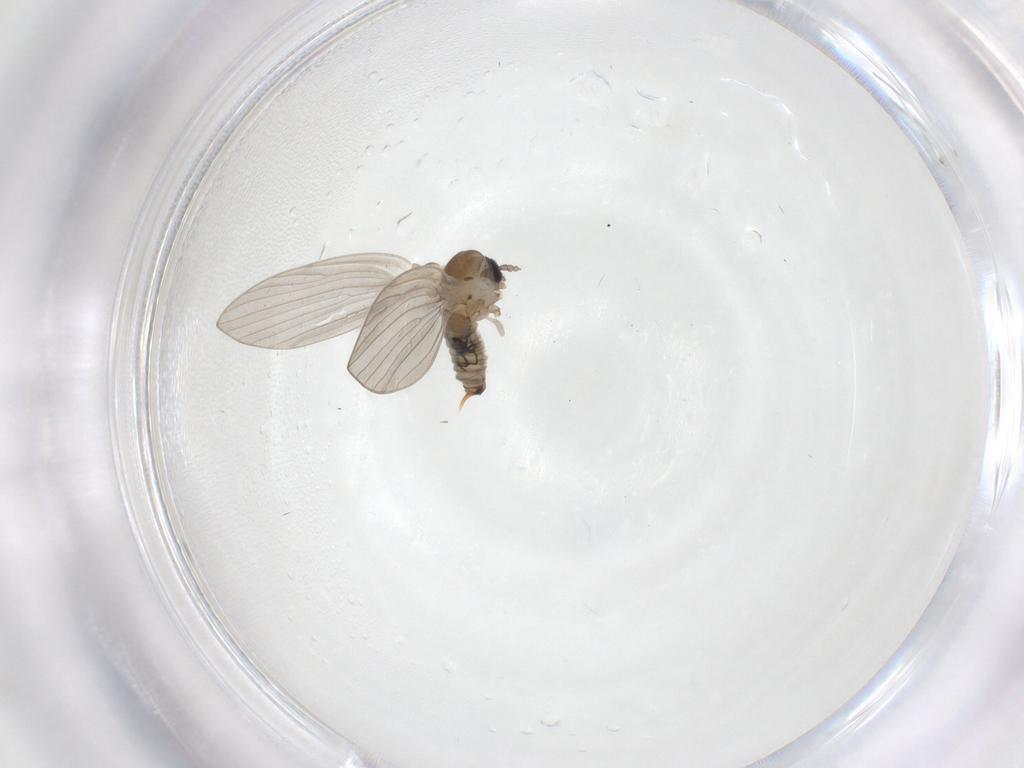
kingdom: Animalia
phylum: Arthropoda
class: Insecta
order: Diptera
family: Psychodidae
